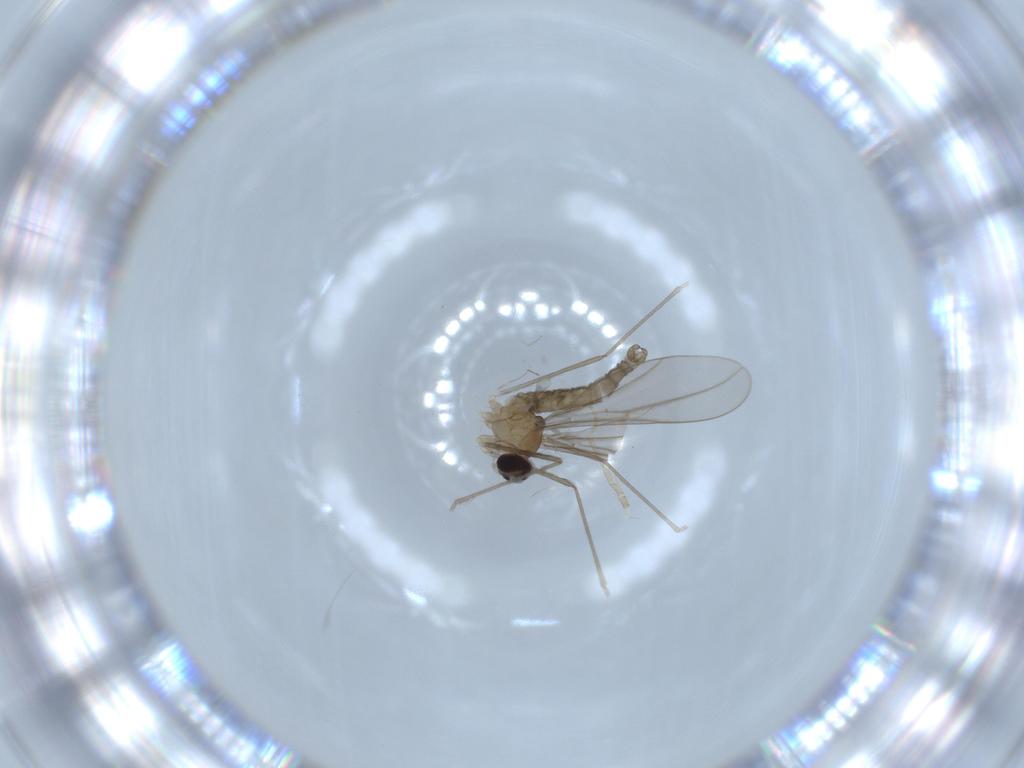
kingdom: Animalia
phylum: Arthropoda
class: Insecta
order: Diptera
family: Cecidomyiidae
